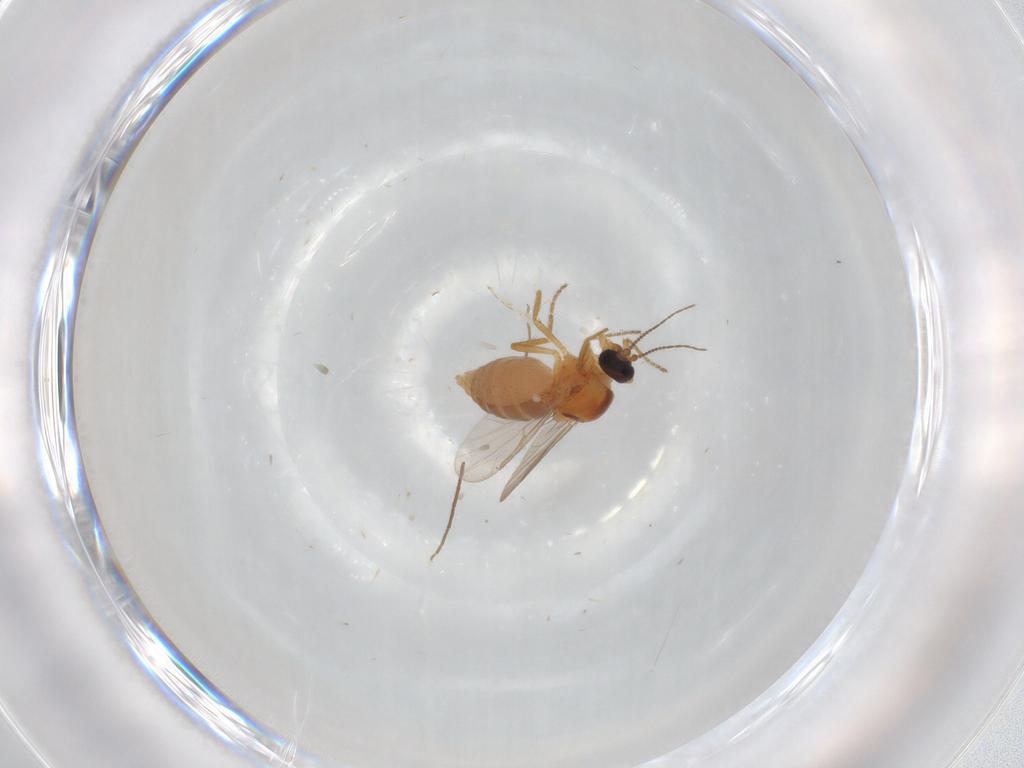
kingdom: Animalia
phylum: Arthropoda
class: Insecta
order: Diptera
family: Ceratopogonidae
